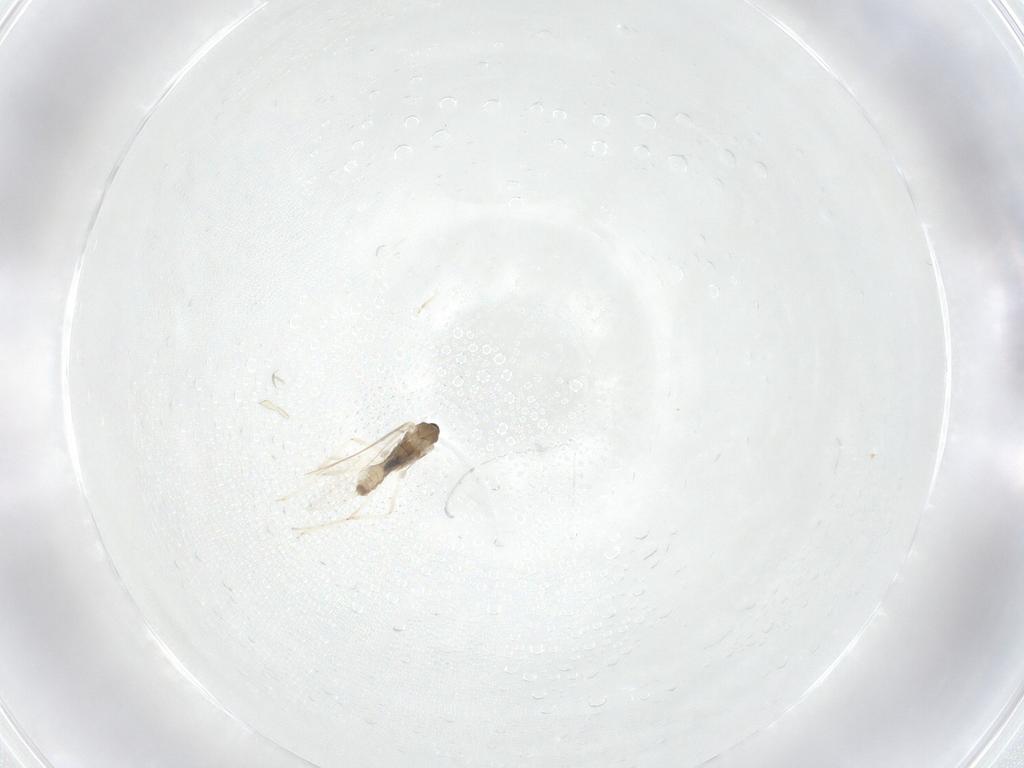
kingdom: Animalia
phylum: Arthropoda
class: Insecta
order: Diptera
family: Cecidomyiidae
